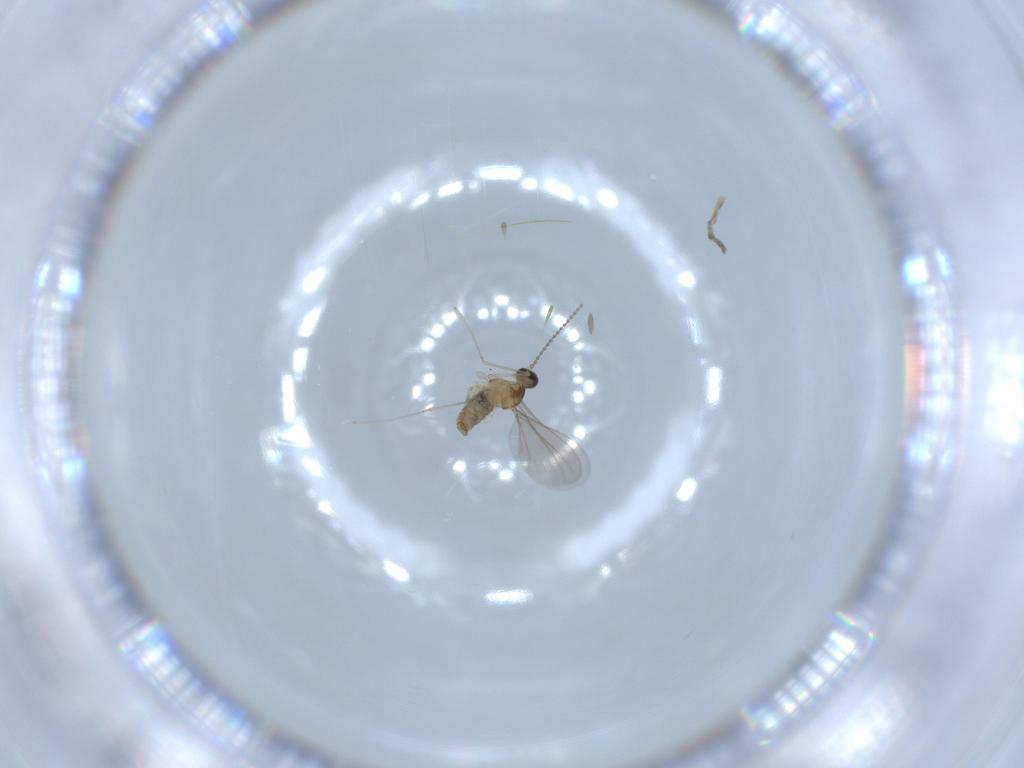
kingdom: Animalia
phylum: Arthropoda
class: Insecta
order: Diptera
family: Cecidomyiidae
